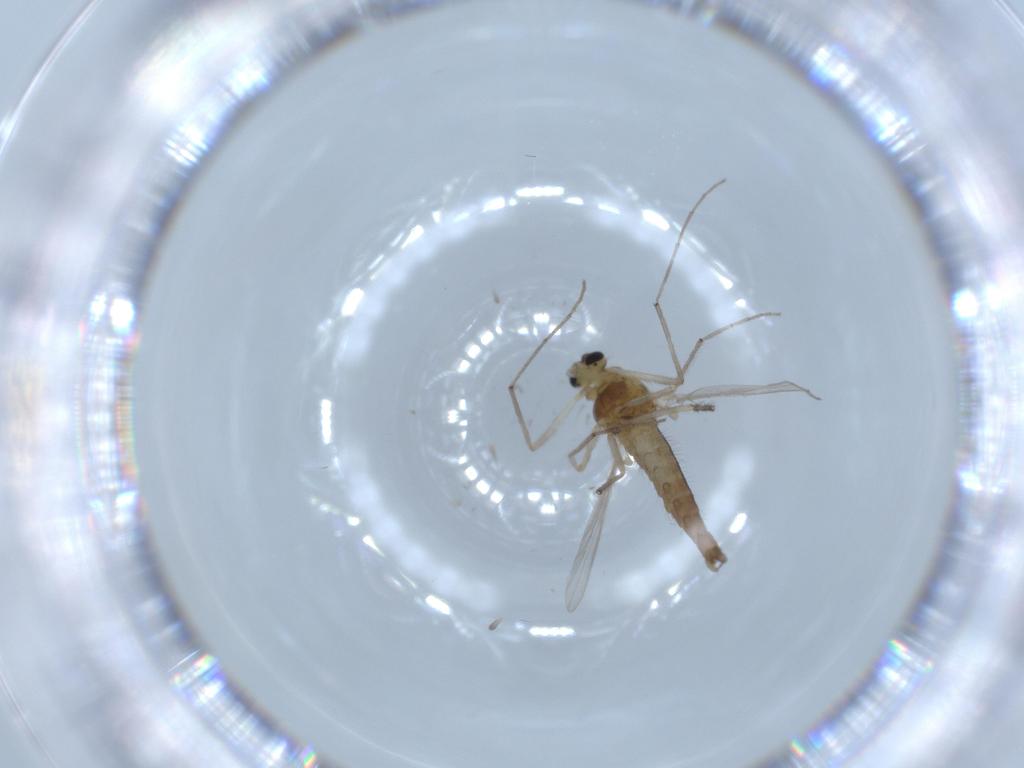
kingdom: Animalia
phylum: Arthropoda
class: Insecta
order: Diptera
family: Chironomidae
